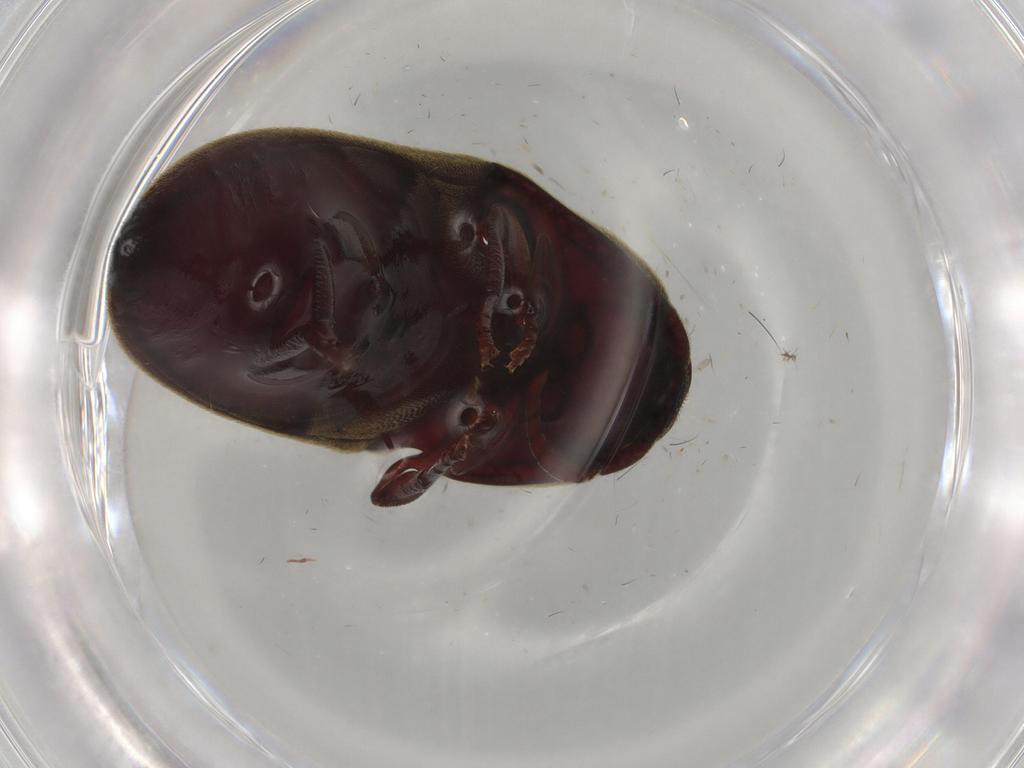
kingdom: Animalia
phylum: Arthropoda
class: Insecta
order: Coleoptera
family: Eucnemidae
